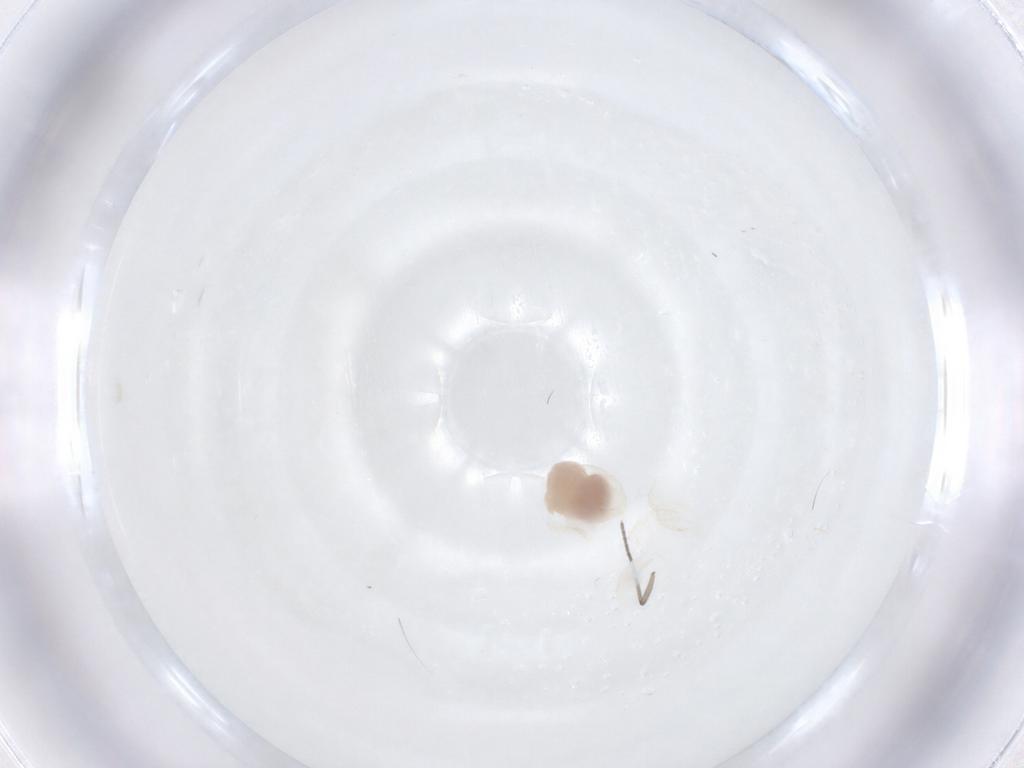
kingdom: Animalia
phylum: Arthropoda
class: Insecta
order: Diptera
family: Sciaridae
